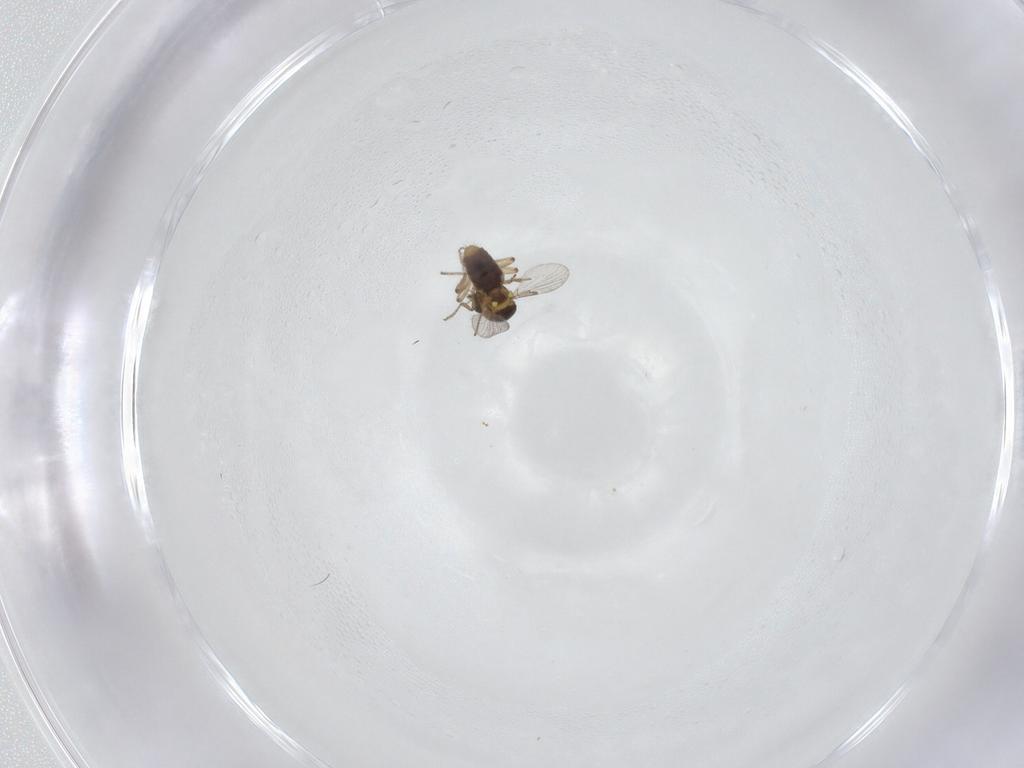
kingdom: Animalia
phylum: Arthropoda
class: Insecta
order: Diptera
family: Ceratopogonidae
